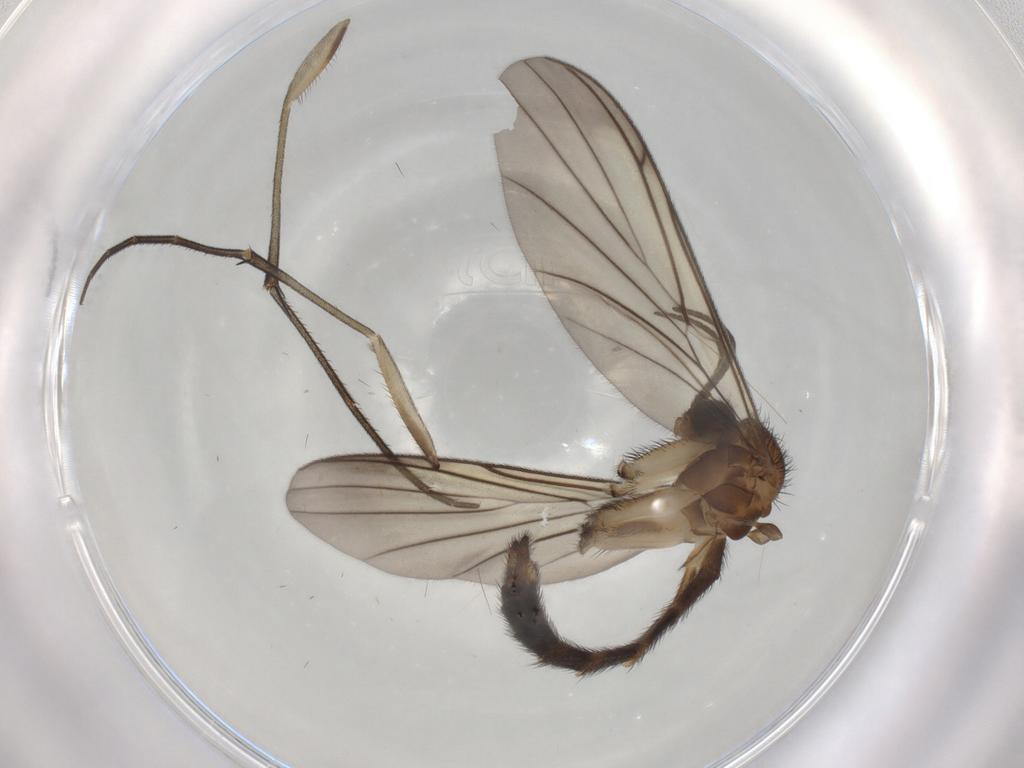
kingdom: Animalia
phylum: Arthropoda
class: Insecta
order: Diptera
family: Keroplatidae
